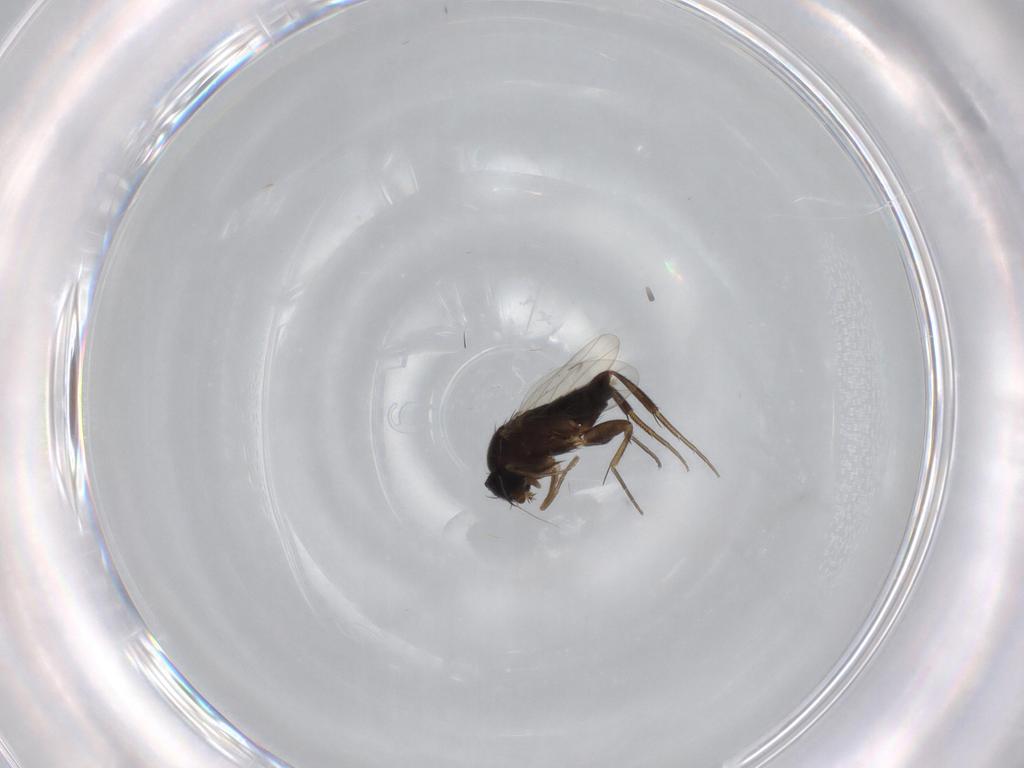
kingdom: Animalia
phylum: Arthropoda
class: Insecta
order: Diptera
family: Phoridae
